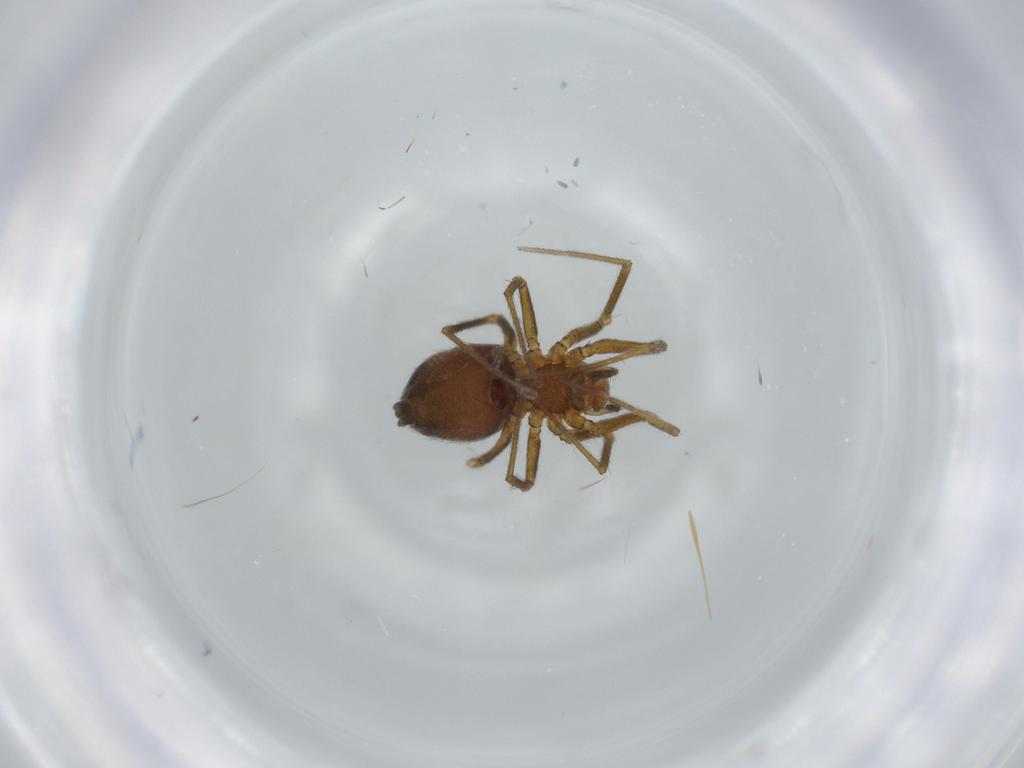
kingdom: Animalia
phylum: Arthropoda
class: Arachnida
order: Araneae
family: Linyphiidae
